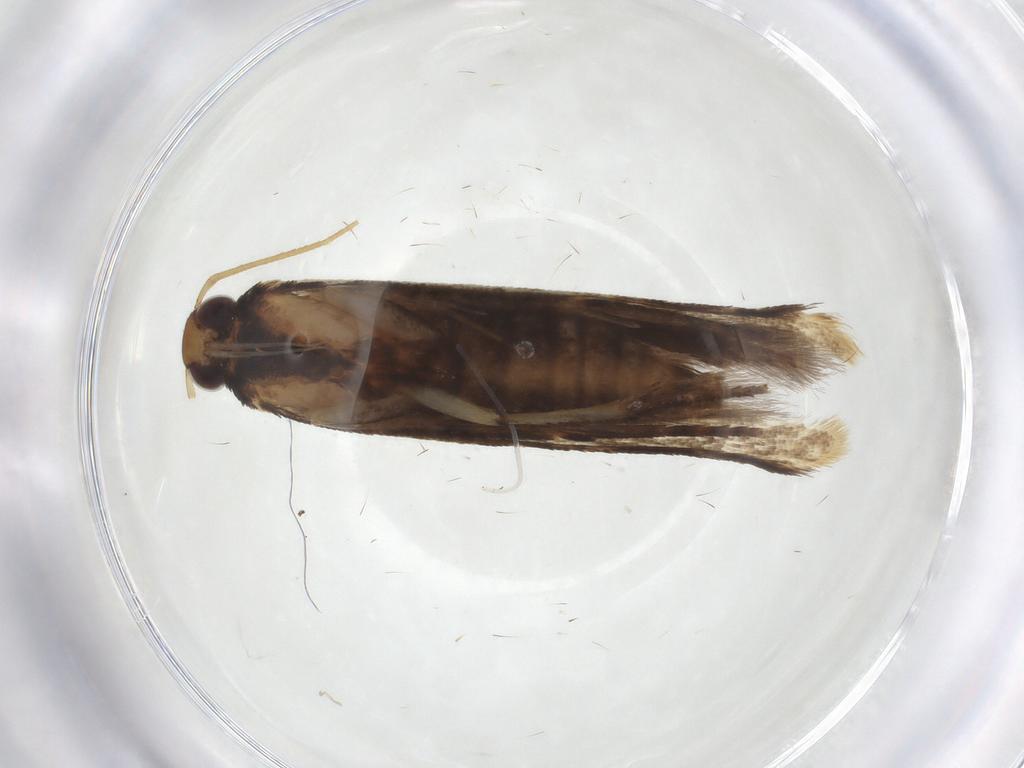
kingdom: Animalia
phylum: Arthropoda
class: Insecta
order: Lepidoptera
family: Gelechiidae
